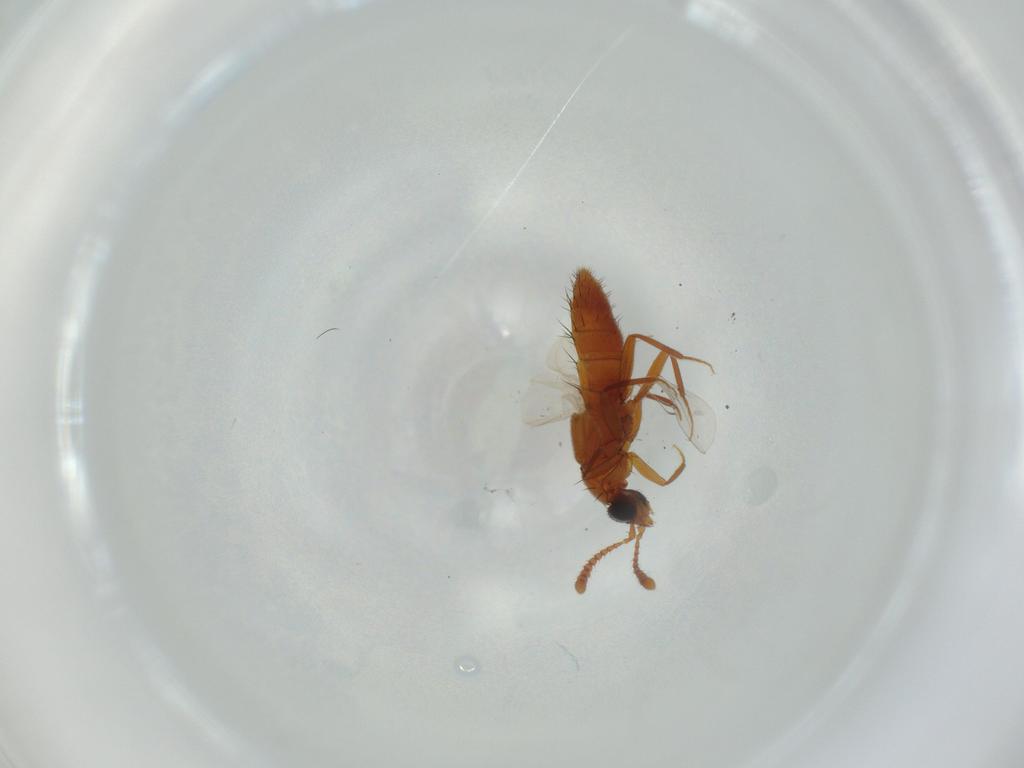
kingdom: Animalia
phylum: Arthropoda
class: Insecta
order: Coleoptera
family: Staphylinidae
